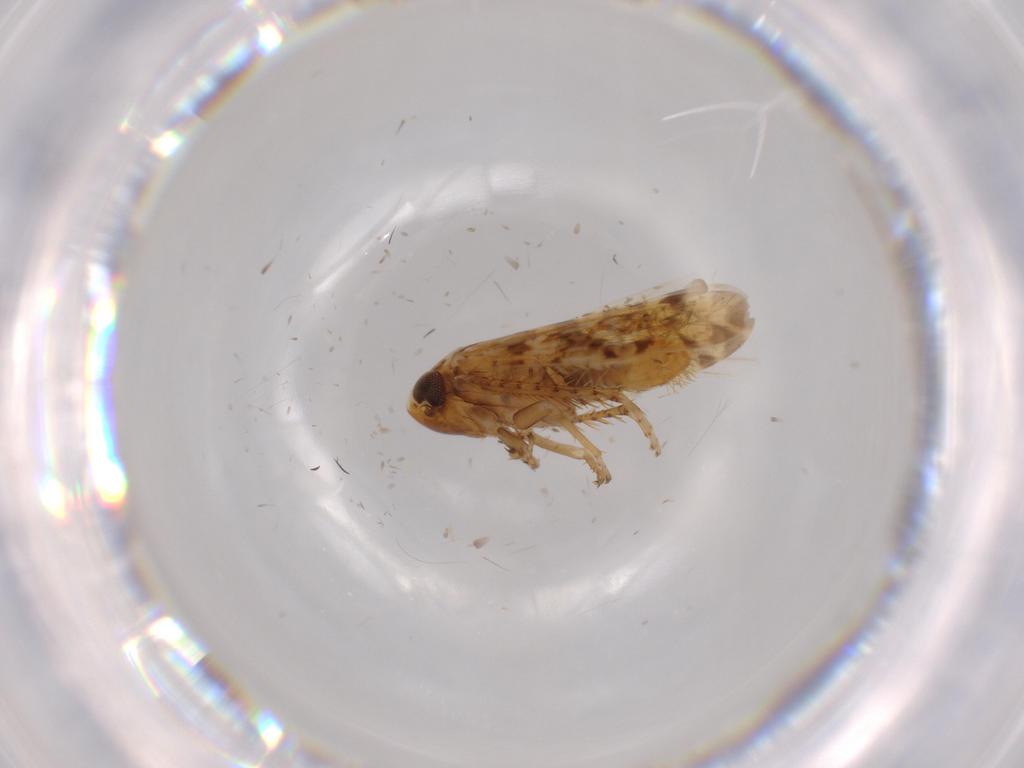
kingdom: Animalia
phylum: Arthropoda
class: Insecta
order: Hemiptera
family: Cicadellidae
